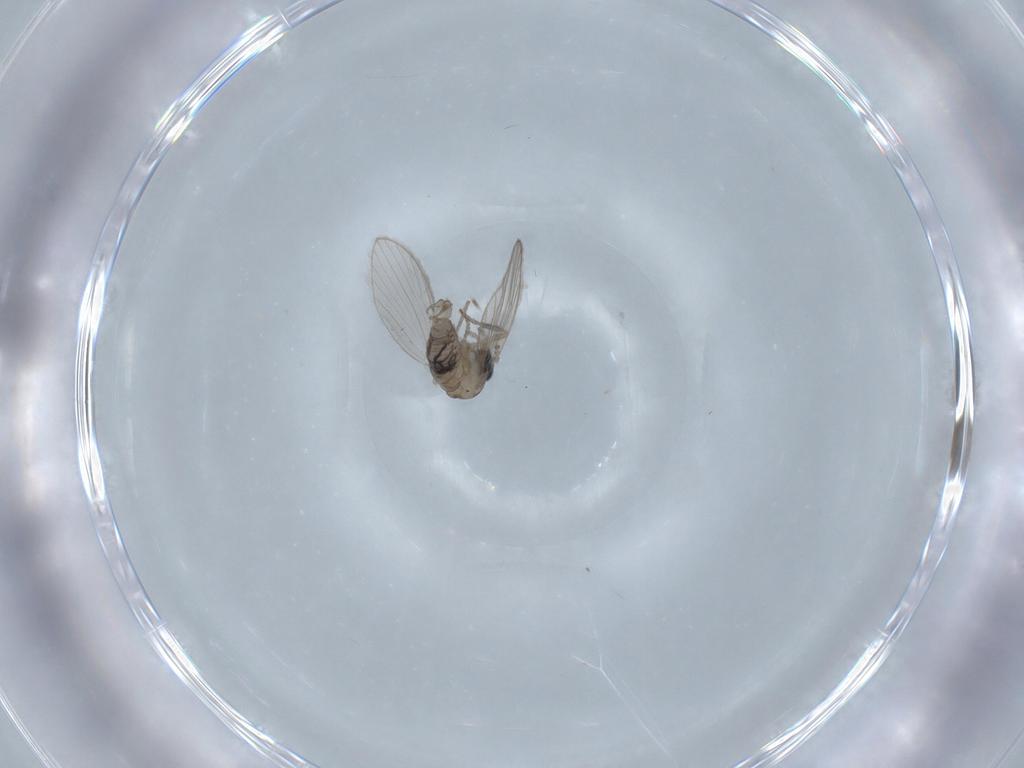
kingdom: Animalia
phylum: Arthropoda
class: Insecta
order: Diptera
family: Psychodidae
